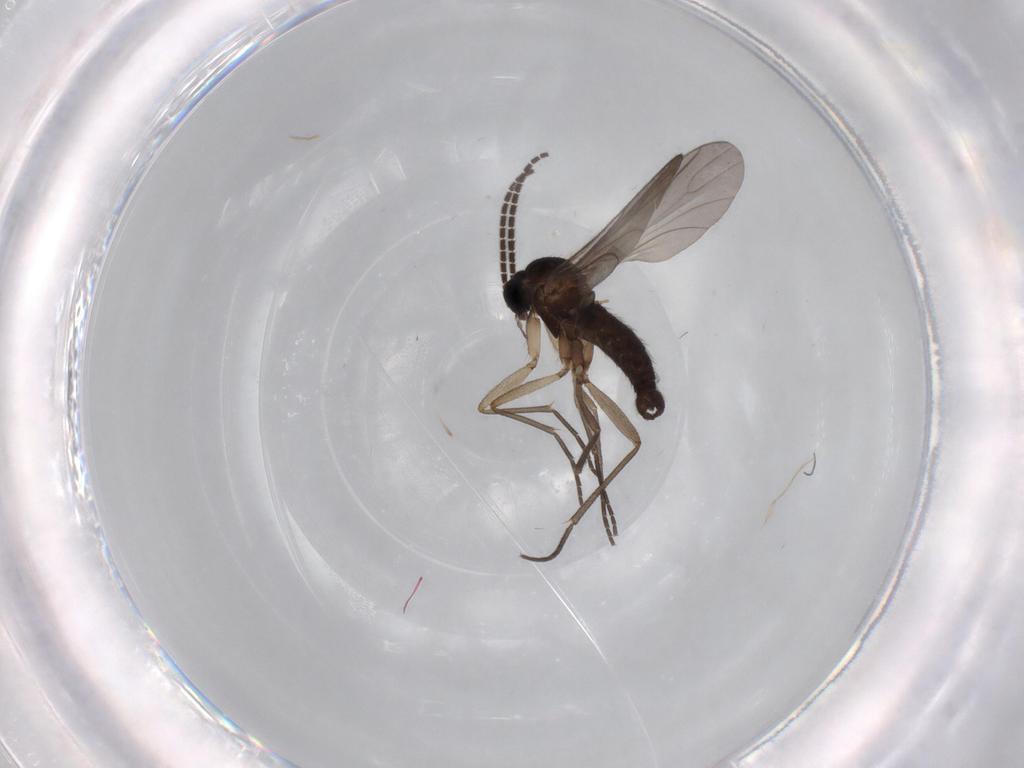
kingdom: Animalia
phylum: Arthropoda
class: Insecta
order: Diptera
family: Sciaridae
